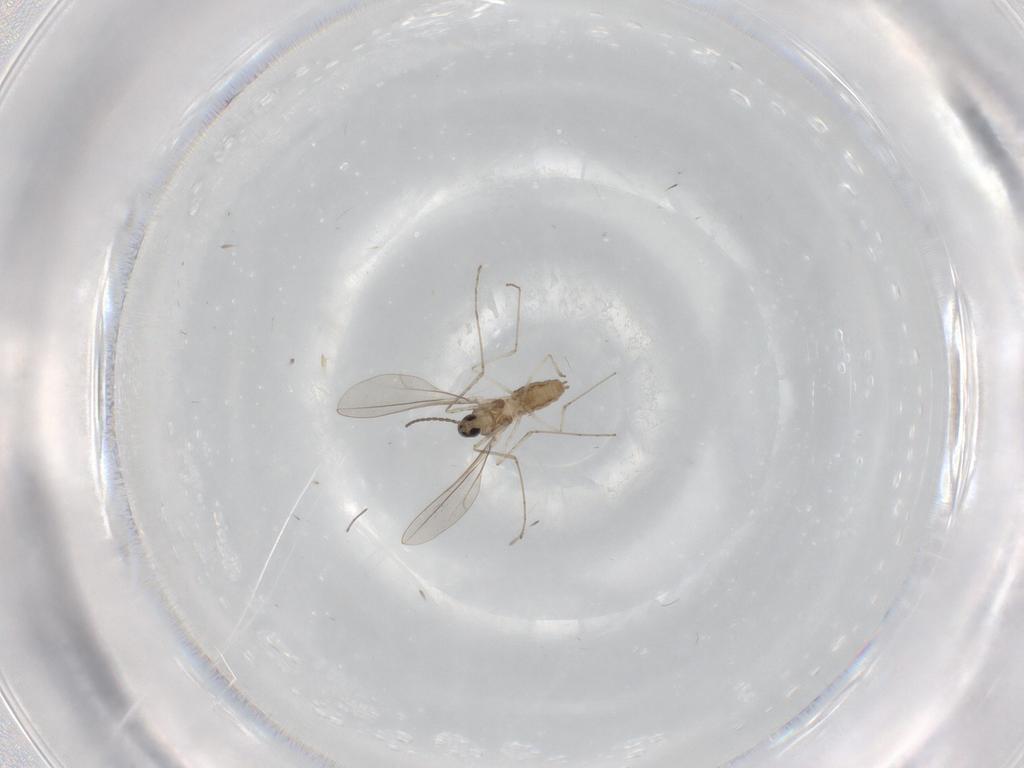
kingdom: Animalia
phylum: Arthropoda
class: Insecta
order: Diptera
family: Cecidomyiidae
